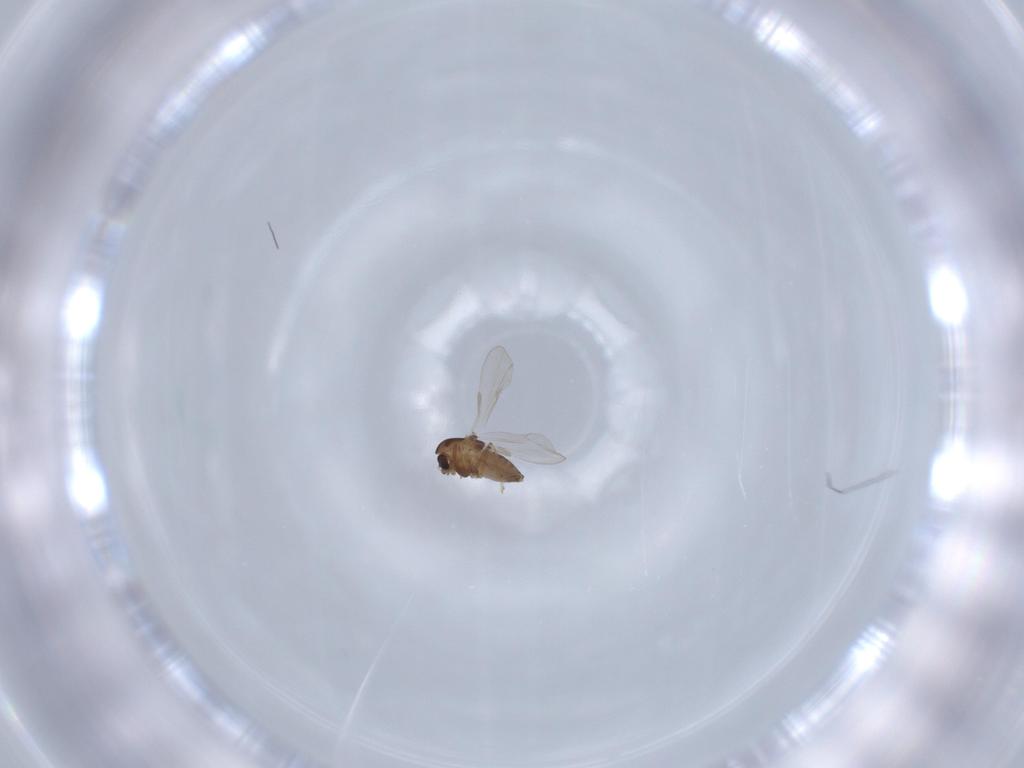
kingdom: Animalia
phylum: Arthropoda
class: Insecta
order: Diptera
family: Chironomidae
